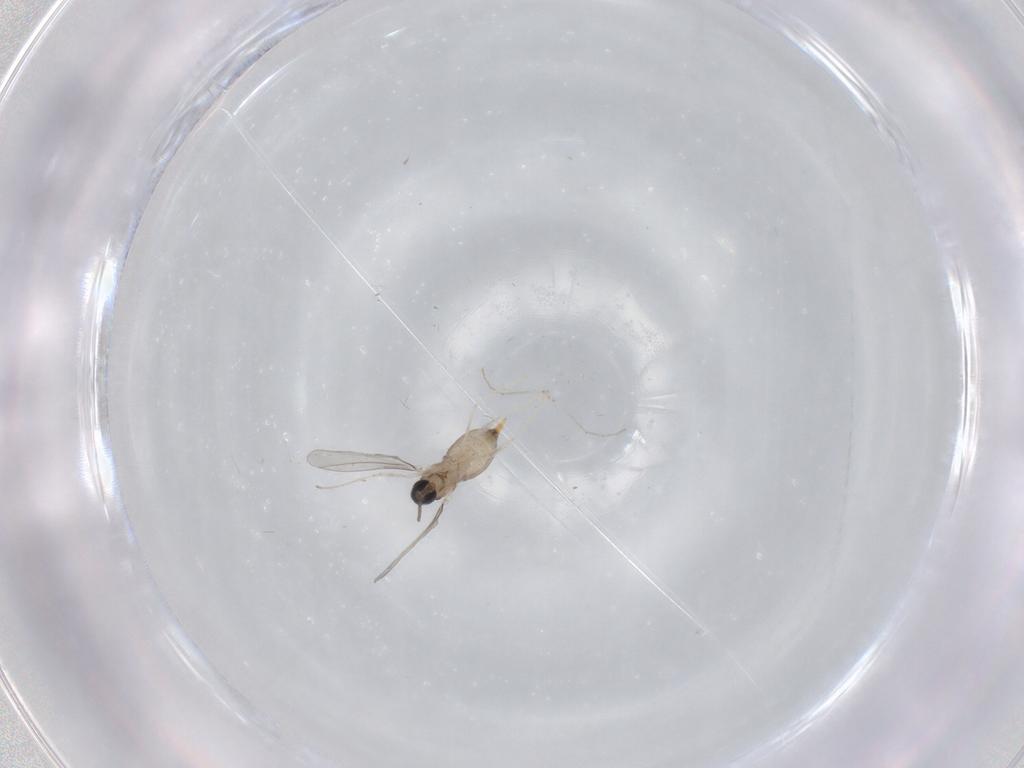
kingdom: Animalia
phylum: Arthropoda
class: Insecta
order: Diptera
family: Cecidomyiidae
